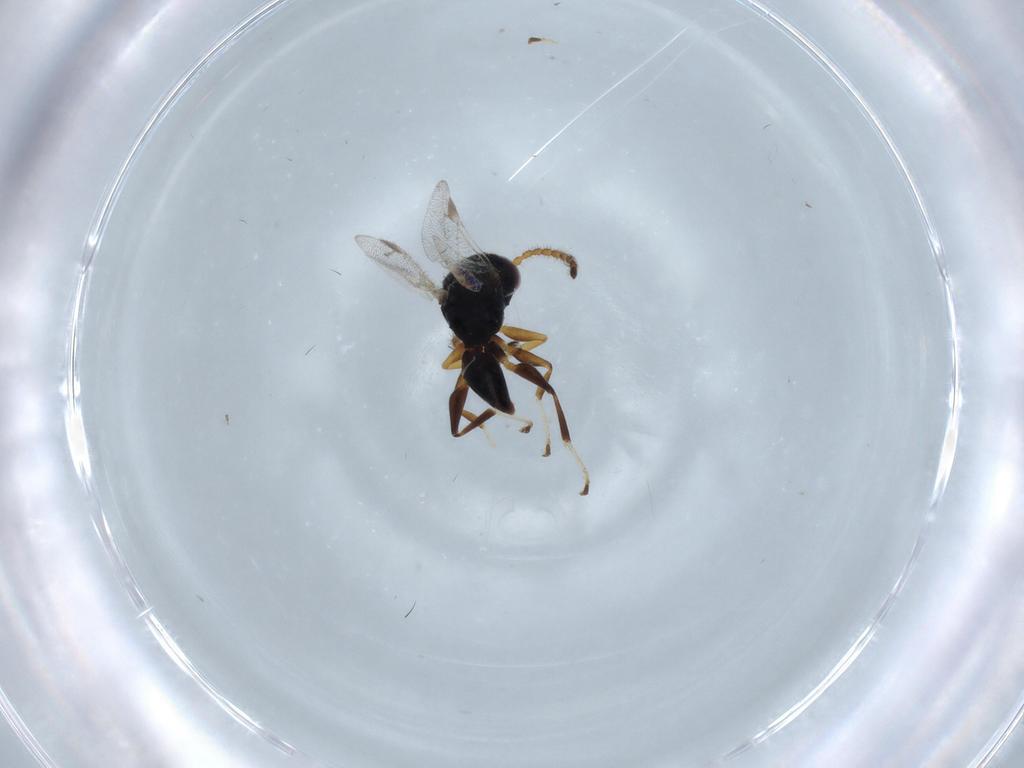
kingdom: Animalia
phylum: Arthropoda
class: Insecta
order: Hymenoptera
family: Dryinidae
